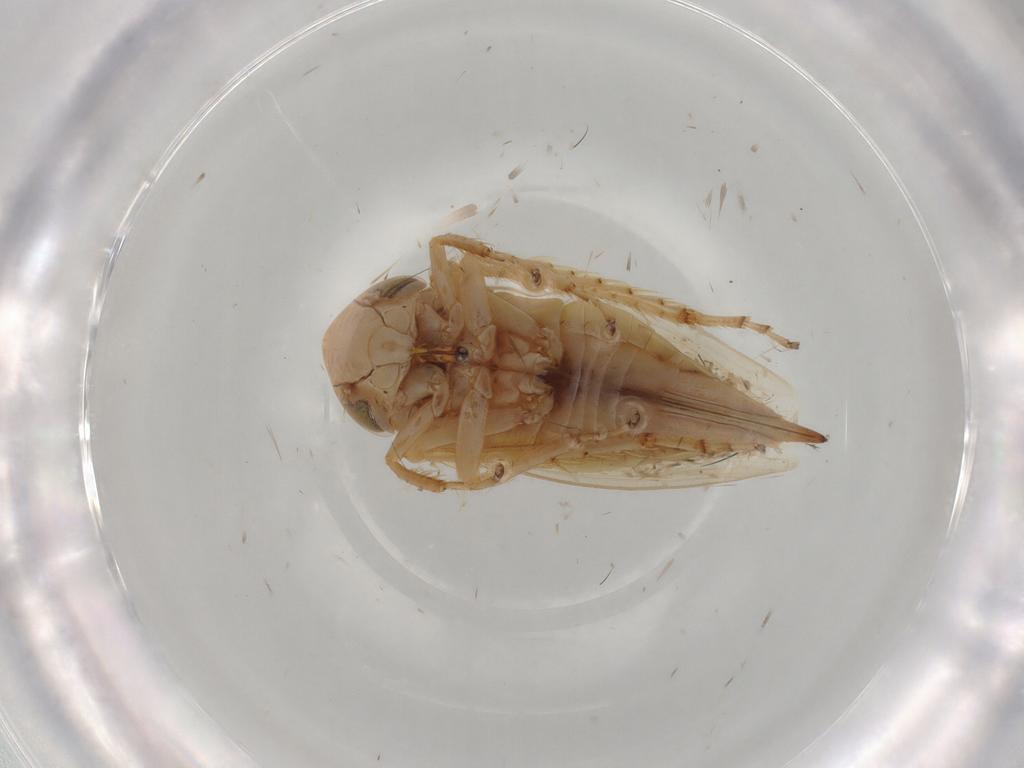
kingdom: Animalia
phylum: Arthropoda
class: Insecta
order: Hemiptera
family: Cicadellidae
